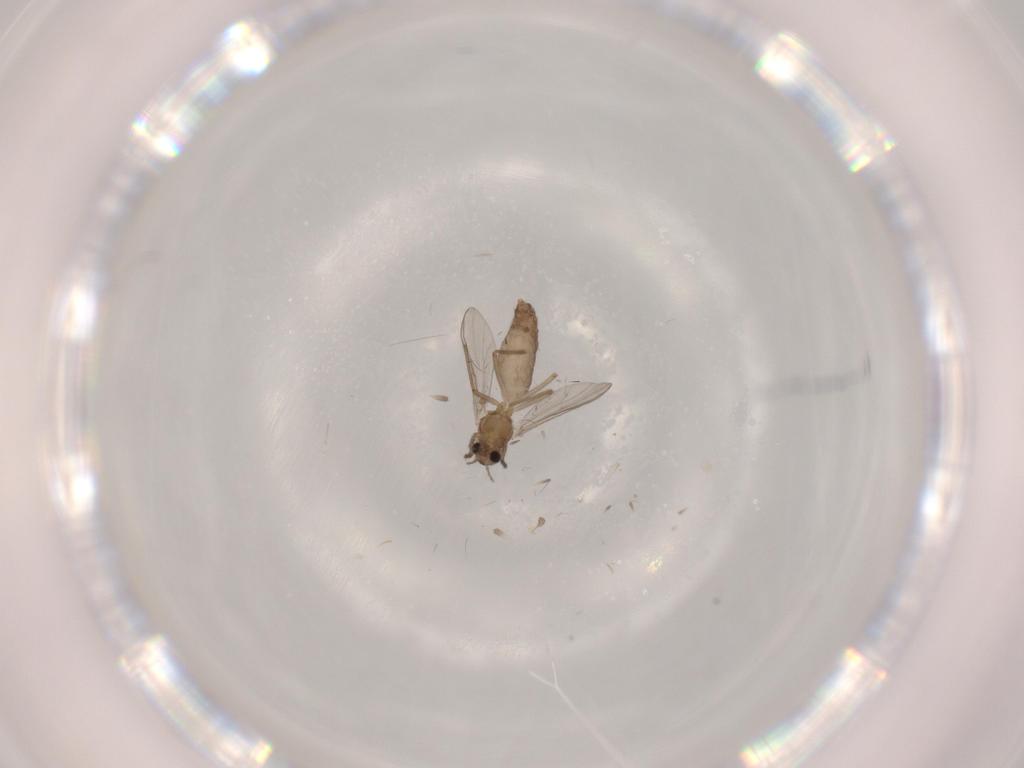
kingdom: Animalia
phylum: Arthropoda
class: Insecta
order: Diptera
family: Chironomidae
